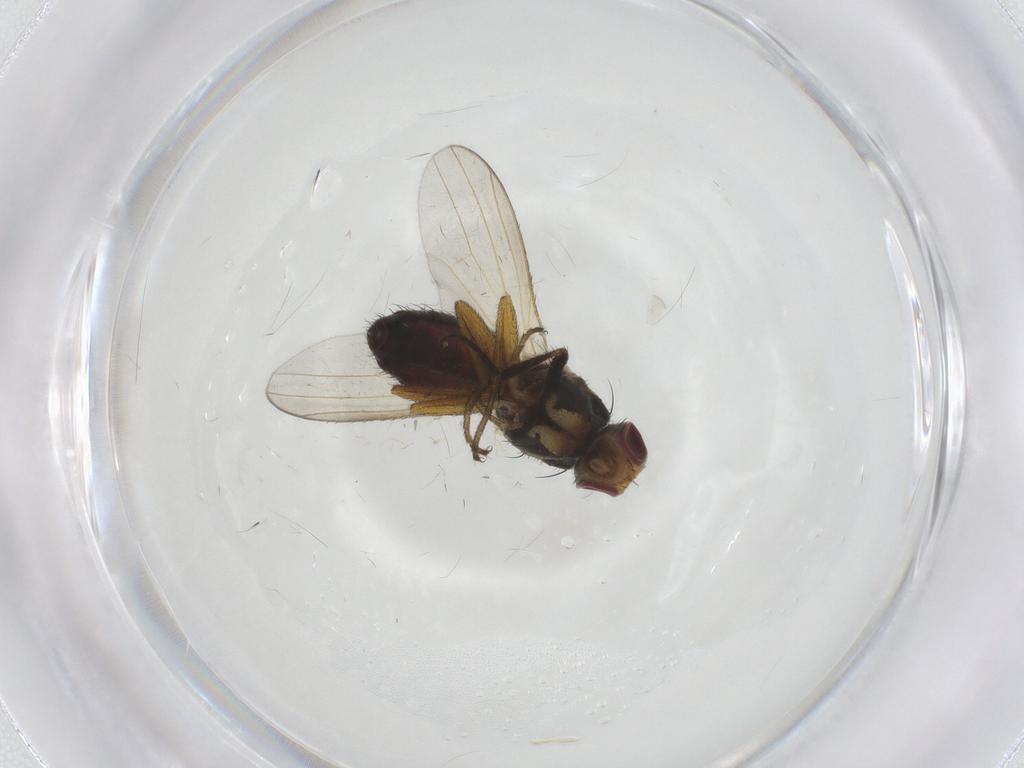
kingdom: Animalia
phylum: Arthropoda
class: Insecta
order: Diptera
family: Heleomyzidae
